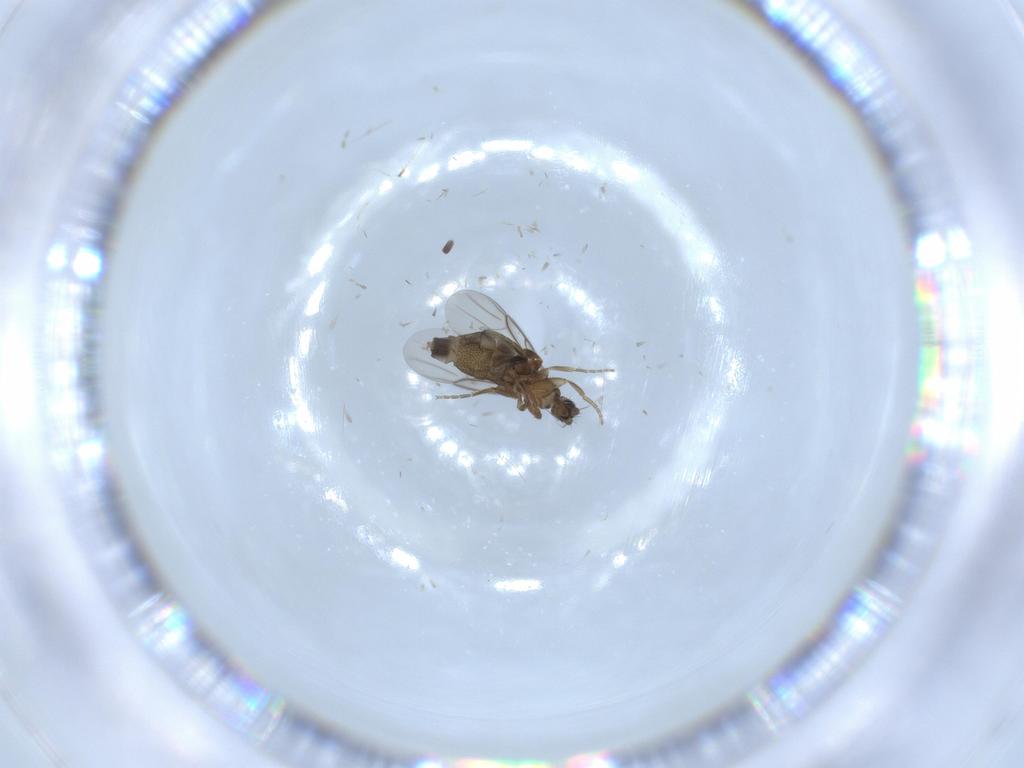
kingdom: Animalia
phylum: Arthropoda
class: Insecta
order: Diptera
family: Phoridae
